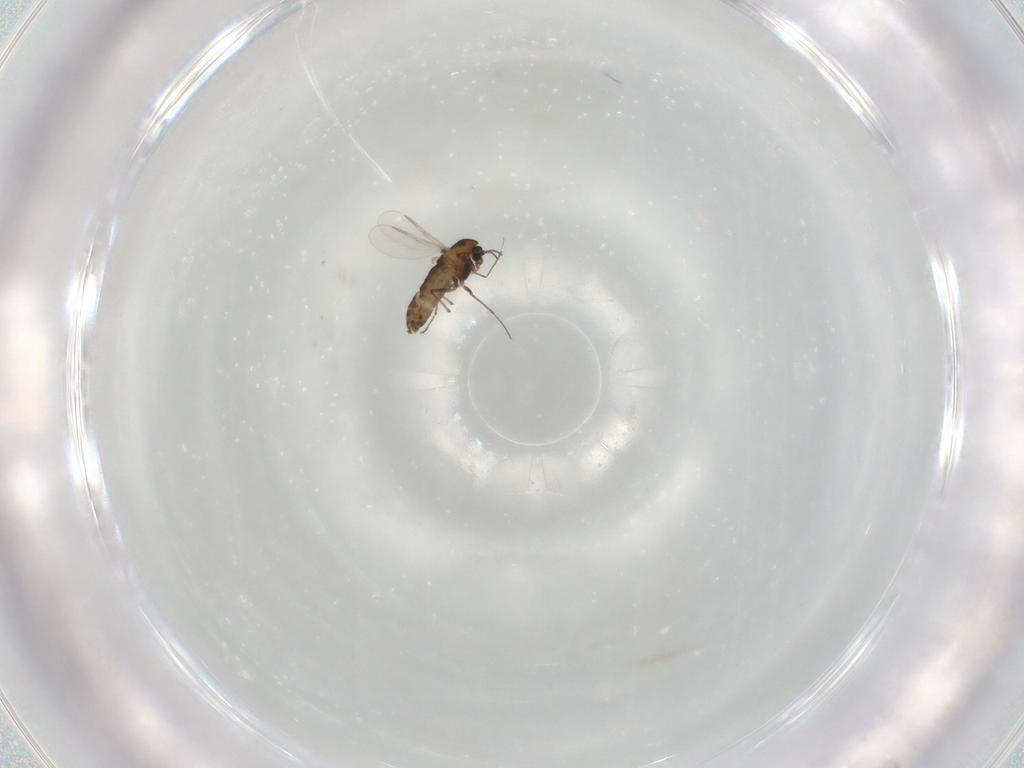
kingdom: Animalia
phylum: Arthropoda
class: Insecta
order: Diptera
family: Chironomidae
